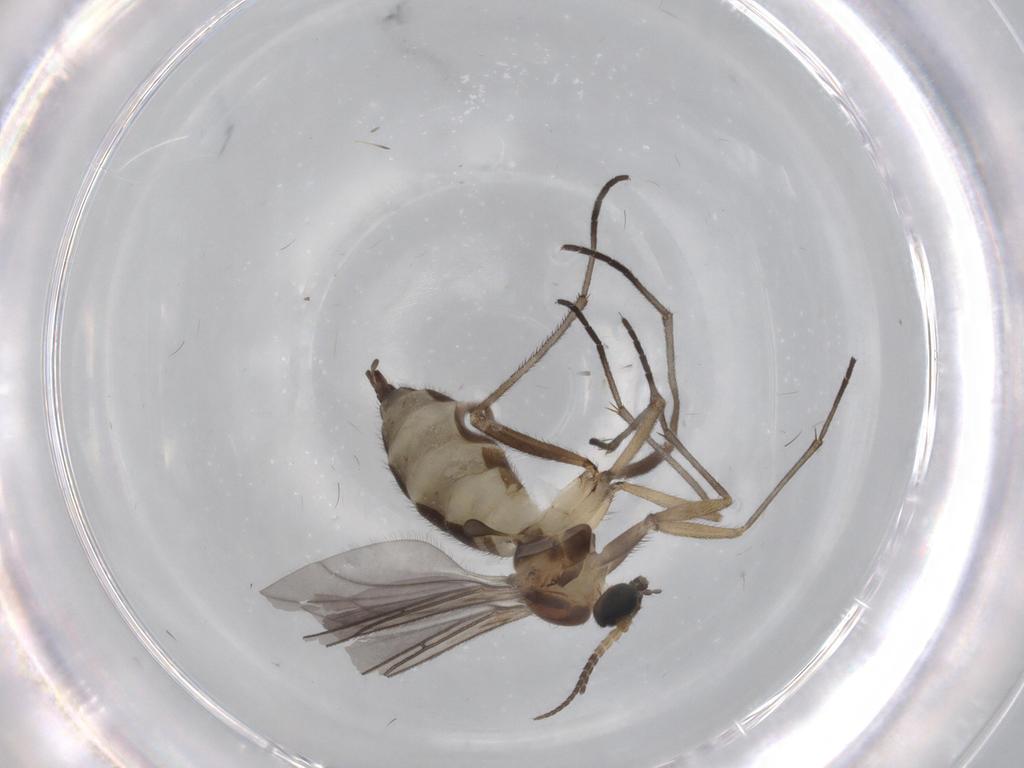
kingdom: Animalia
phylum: Arthropoda
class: Insecta
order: Diptera
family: Sciaridae
